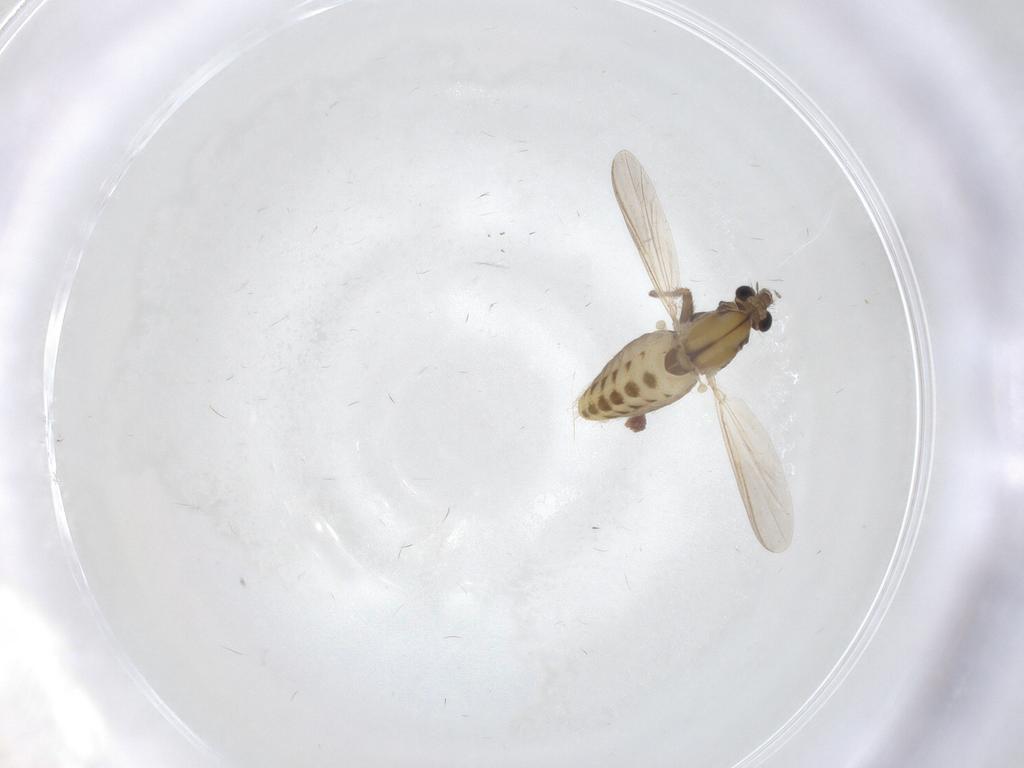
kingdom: Animalia
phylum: Arthropoda
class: Insecta
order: Diptera
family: Chironomidae
